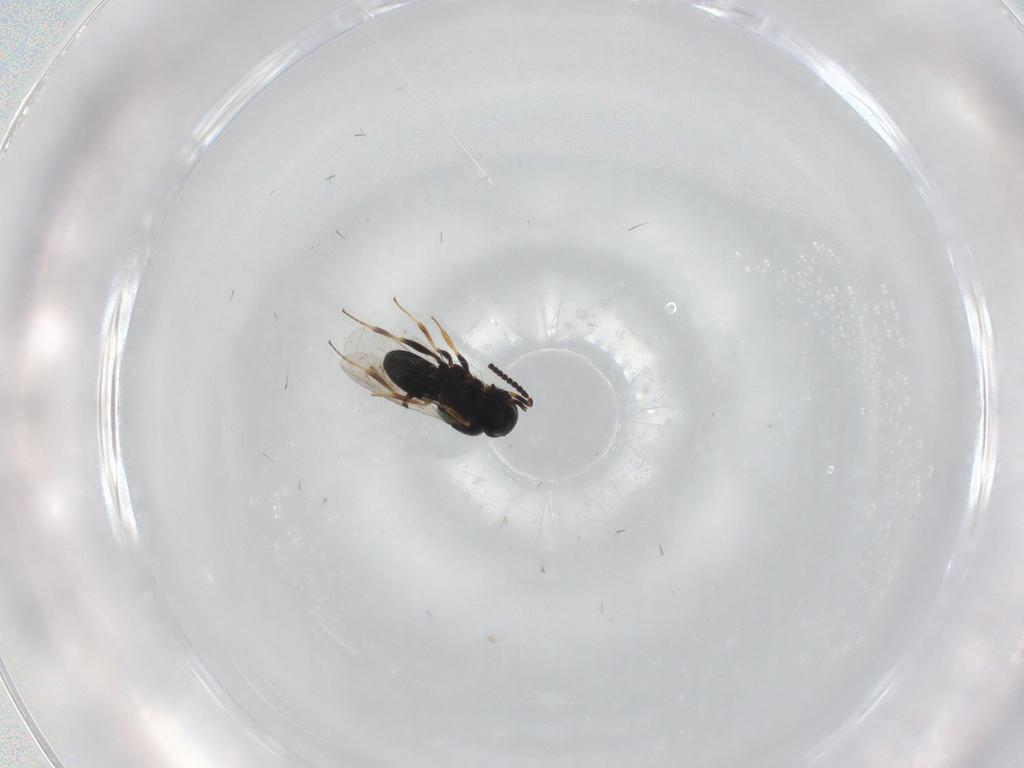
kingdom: Animalia
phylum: Arthropoda
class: Insecta
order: Hymenoptera
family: Scelionidae
